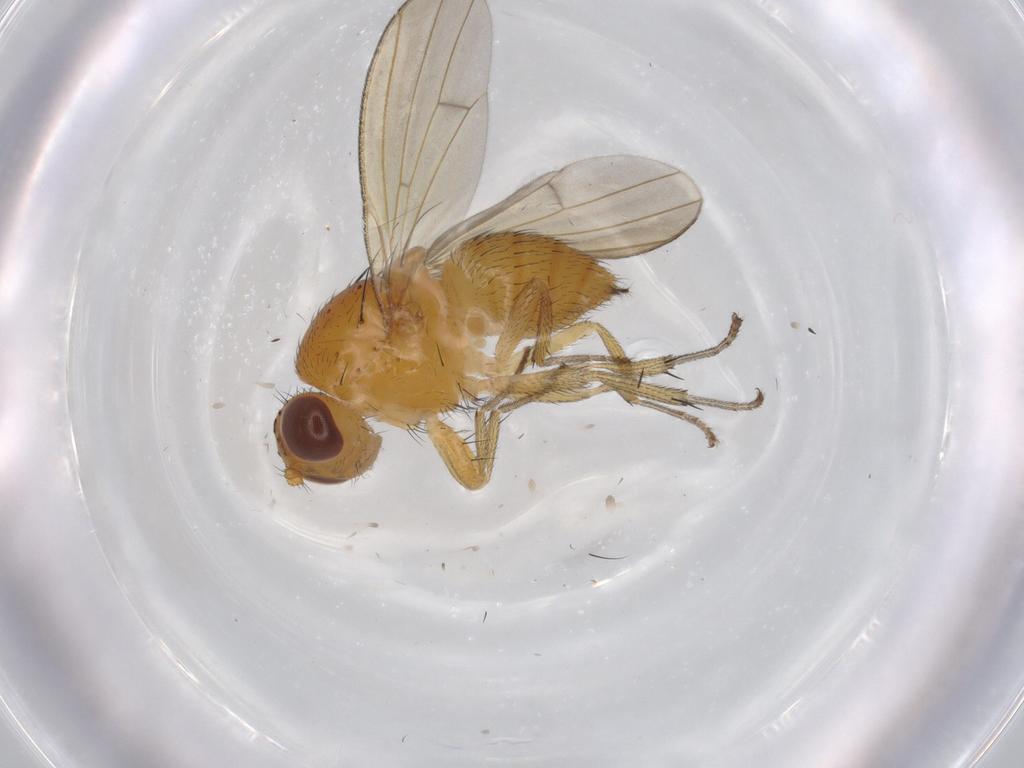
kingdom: Animalia
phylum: Arthropoda
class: Insecta
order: Diptera
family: Lauxaniidae
